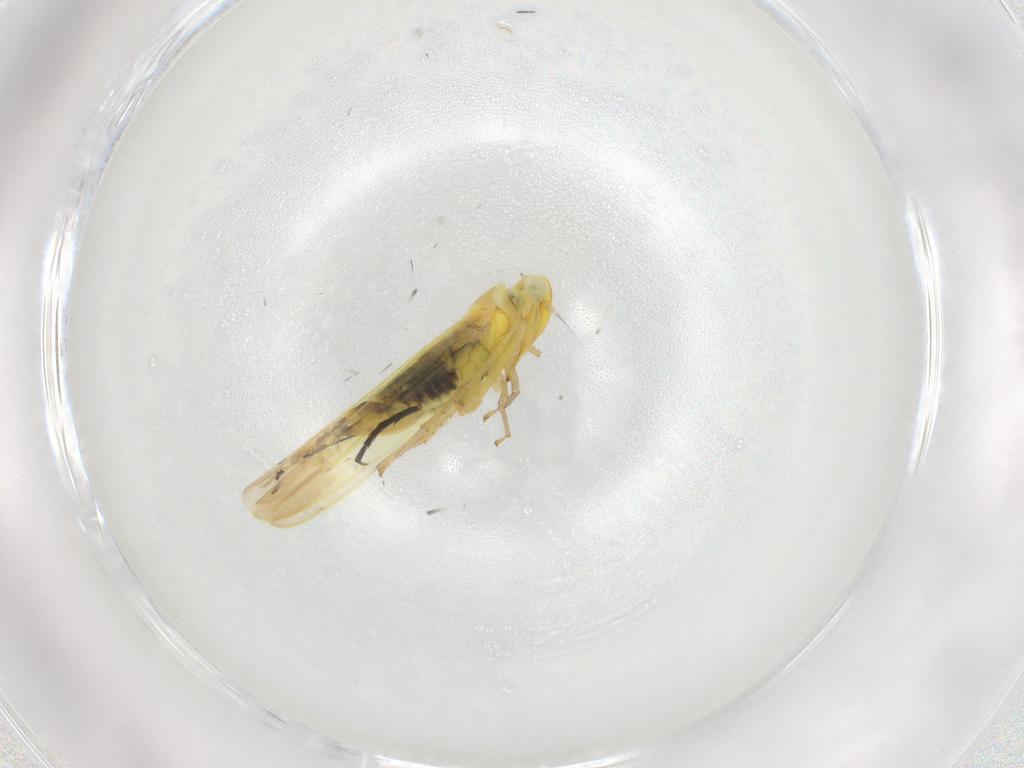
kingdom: Animalia
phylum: Arthropoda
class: Insecta
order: Hemiptera
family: Cicadellidae
